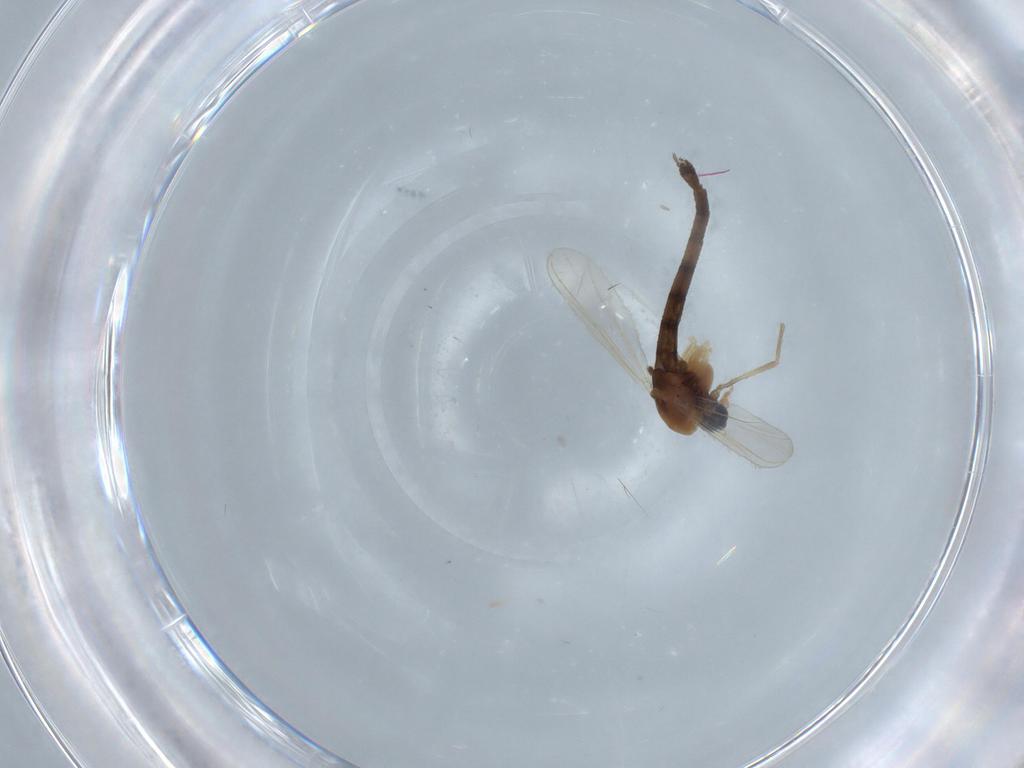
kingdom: Animalia
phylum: Arthropoda
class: Insecta
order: Diptera
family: Chironomidae
